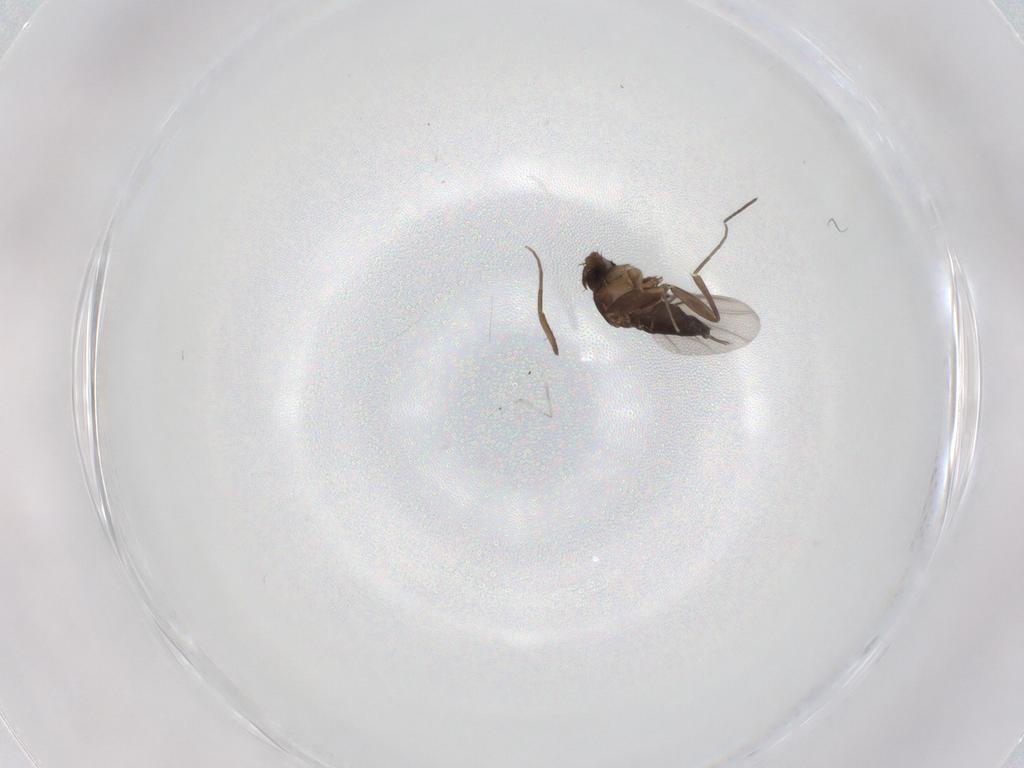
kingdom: Animalia
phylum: Arthropoda
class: Insecta
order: Diptera
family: Phoridae
